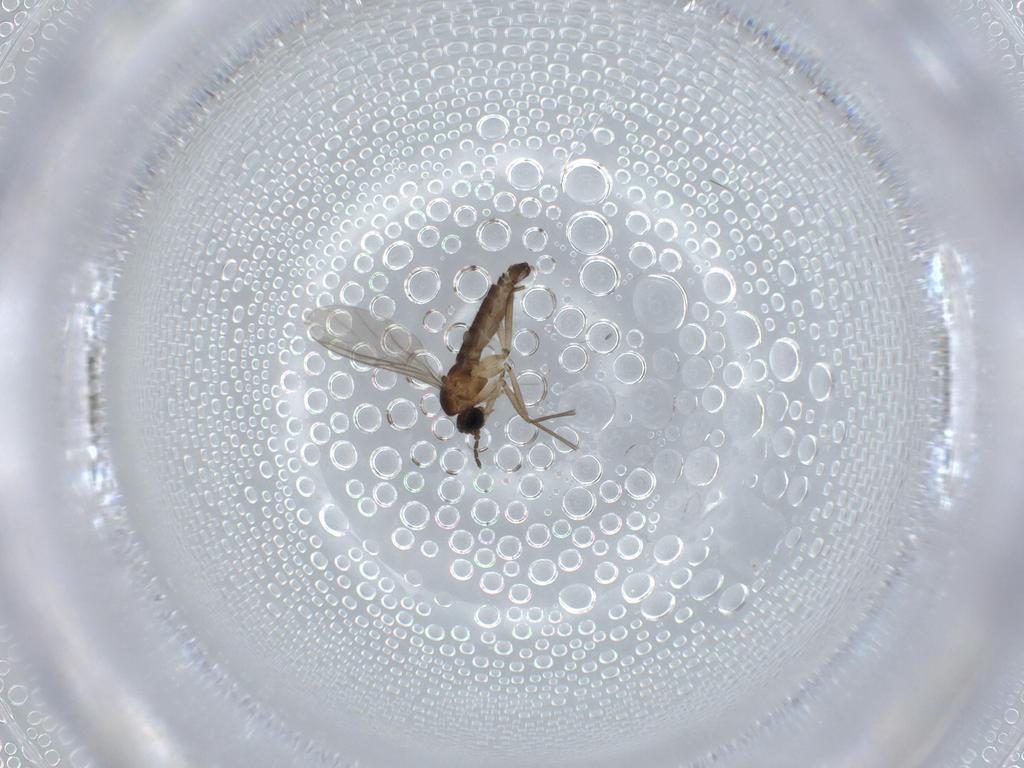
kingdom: Animalia
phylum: Arthropoda
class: Insecta
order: Diptera
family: Sciaridae
